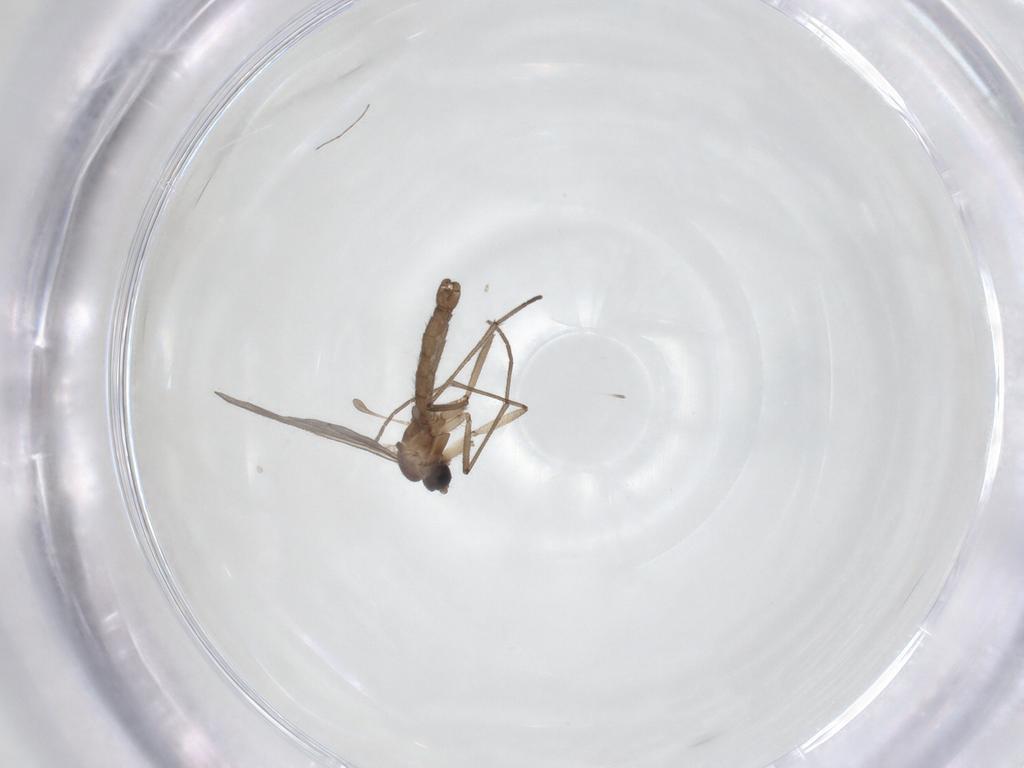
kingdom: Animalia
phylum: Arthropoda
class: Insecta
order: Diptera
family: Sciaridae
